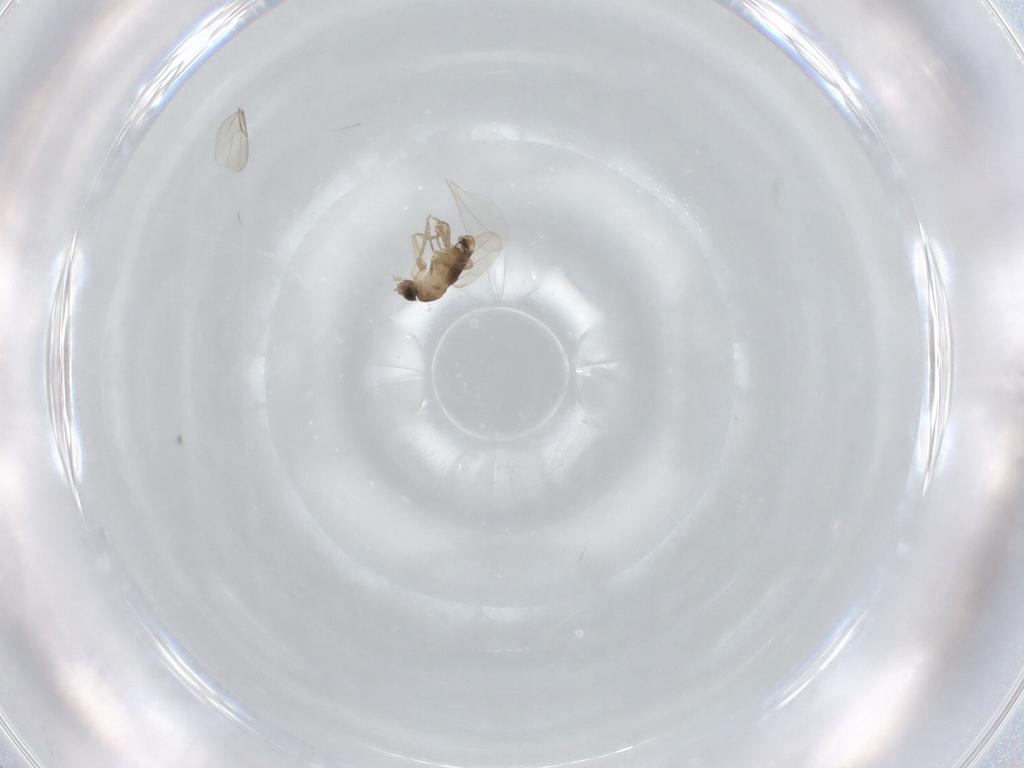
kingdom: Animalia
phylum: Arthropoda
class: Insecta
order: Diptera
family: Phoridae
